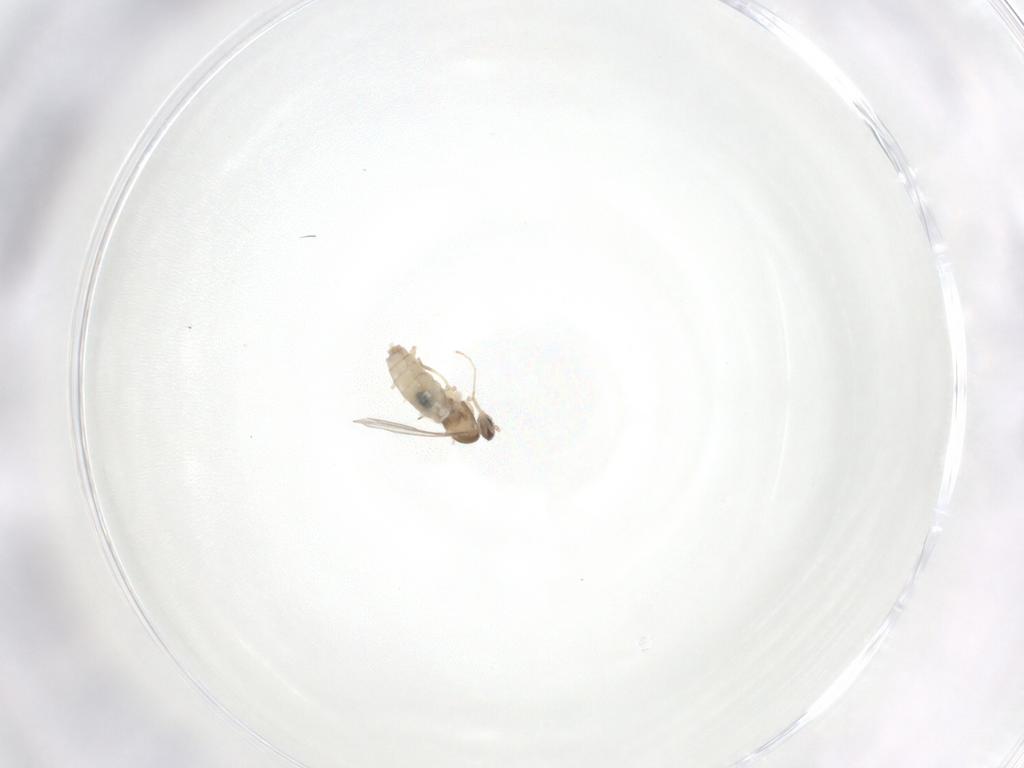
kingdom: Animalia
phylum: Arthropoda
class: Insecta
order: Diptera
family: Cecidomyiidae
